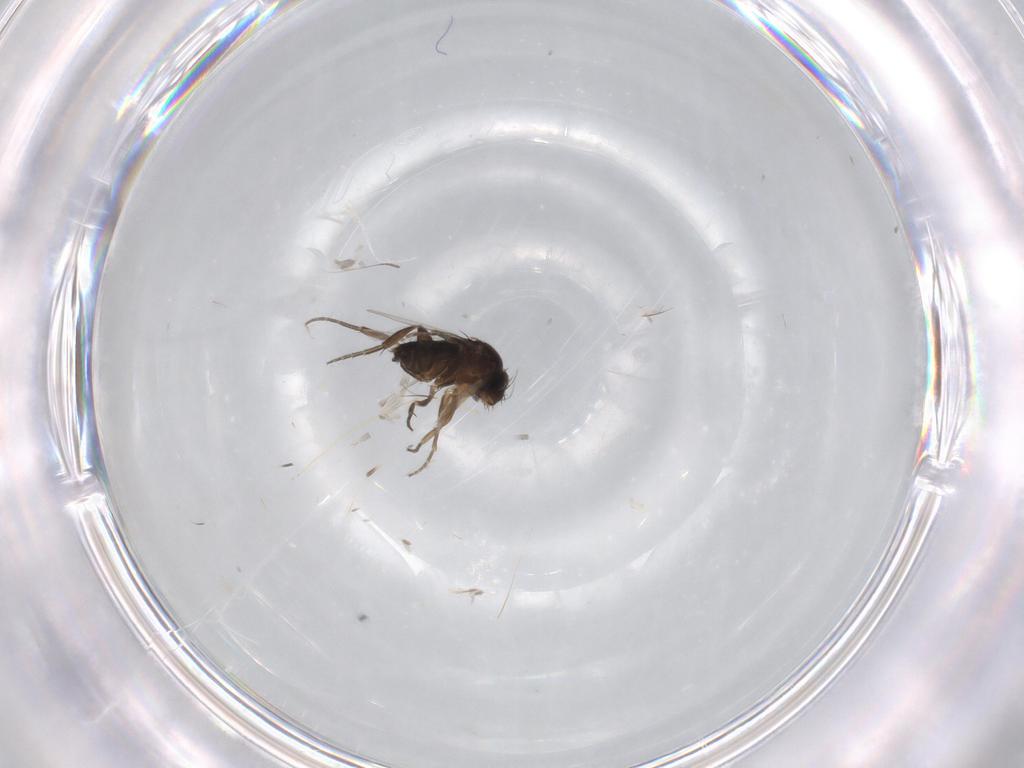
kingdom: Animalia
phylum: Arthropoda
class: Insecta
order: Diptera
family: Phoridae
